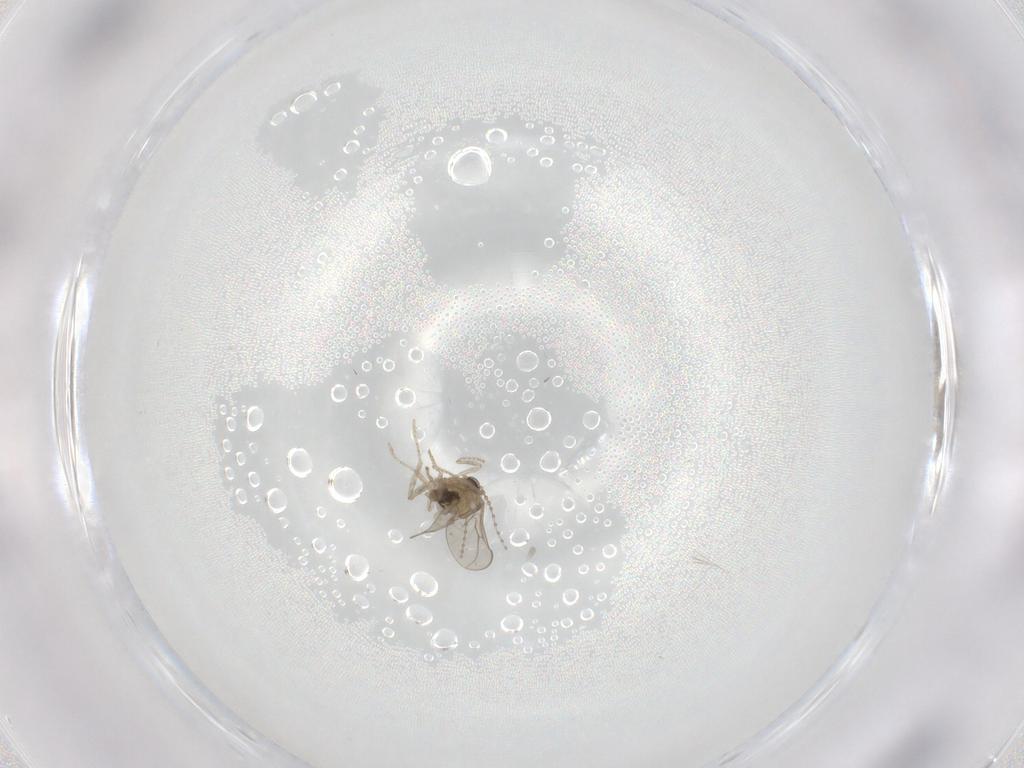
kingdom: Animalia
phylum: Arthropoda
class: Insecta
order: Diptera
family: Cecidomyiidae
